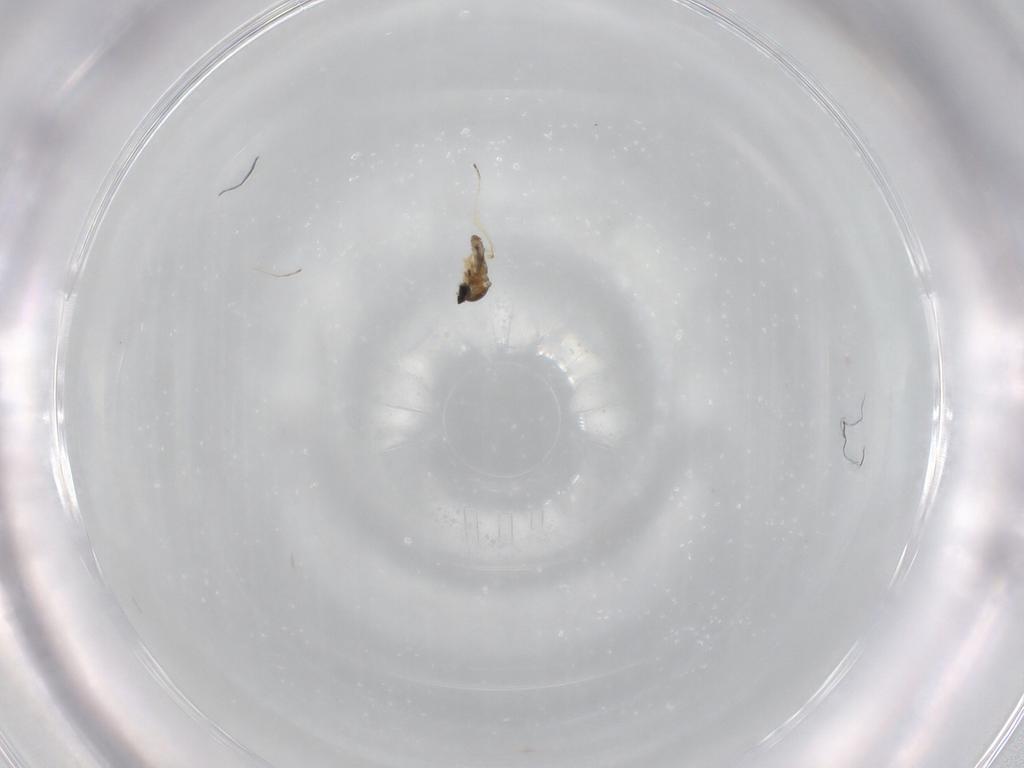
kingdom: Animalia
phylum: Arthropoda
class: Insecta
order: Diptera
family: Cecidomyiidae
